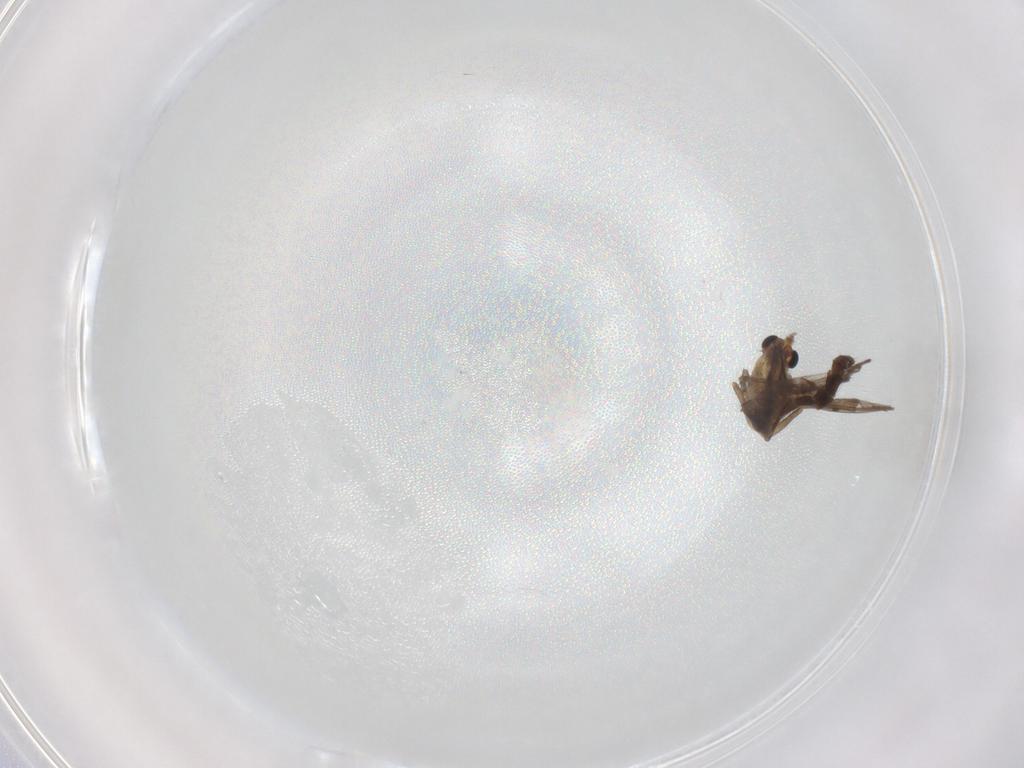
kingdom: Animalia
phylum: Arthropoda
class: Insecta
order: Diptera
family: Chironomidae
